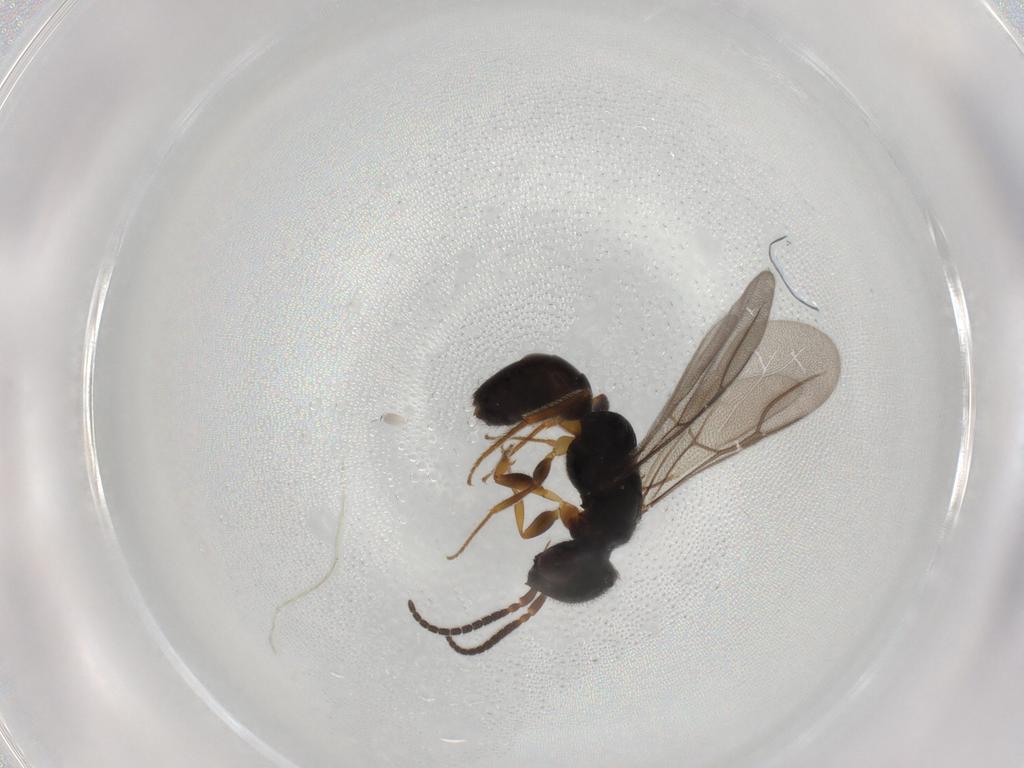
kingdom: Animalia
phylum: Arthropoda
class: Insecta
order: Hymenoptera
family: Bethylidae
